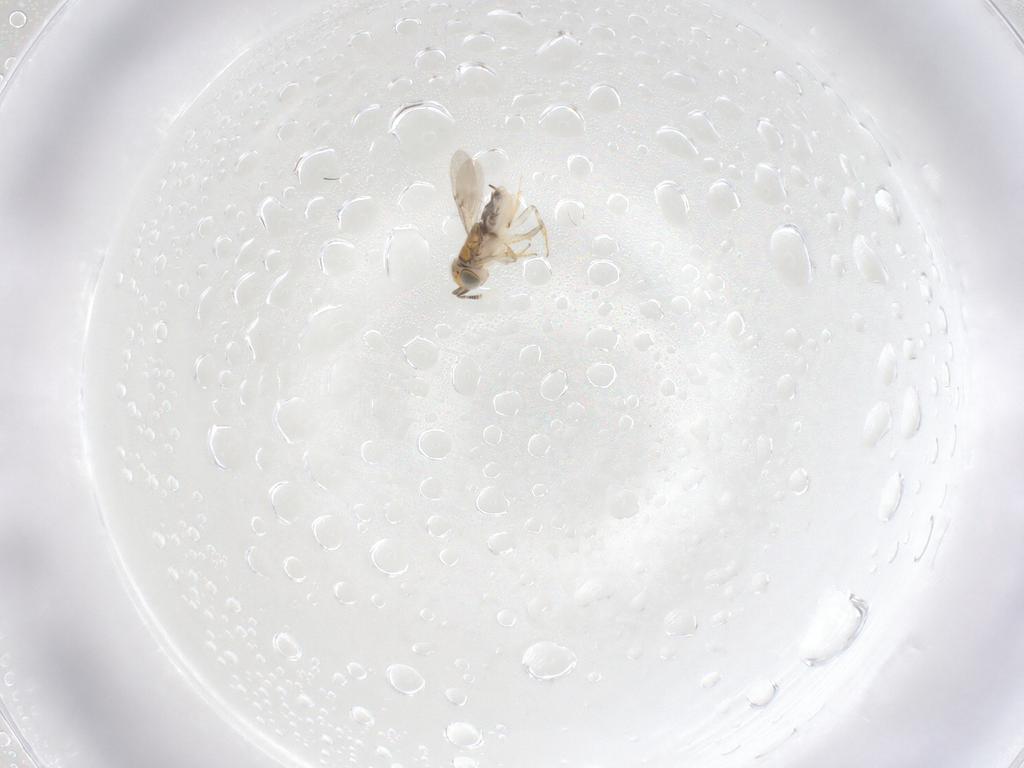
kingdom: Animalia
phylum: Arthropoda
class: Insecta
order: Hymenoptera
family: Encyrtidae
